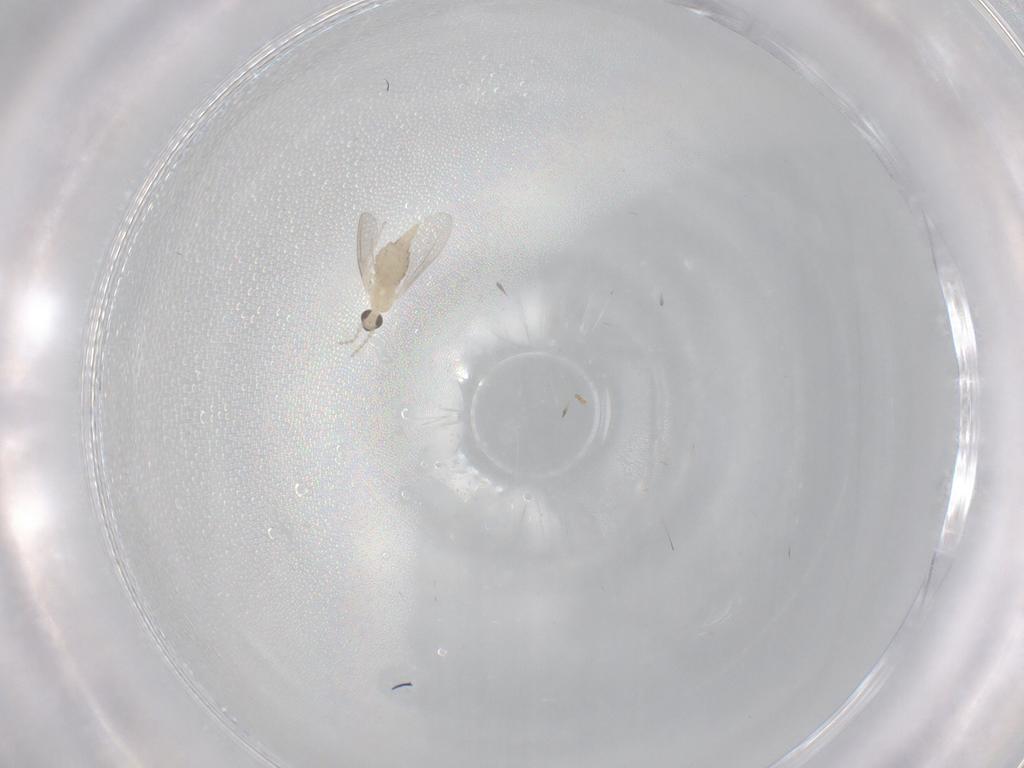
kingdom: Animalia
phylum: Arthropoda
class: Insecta
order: Diptera
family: Cecidomyiidae
